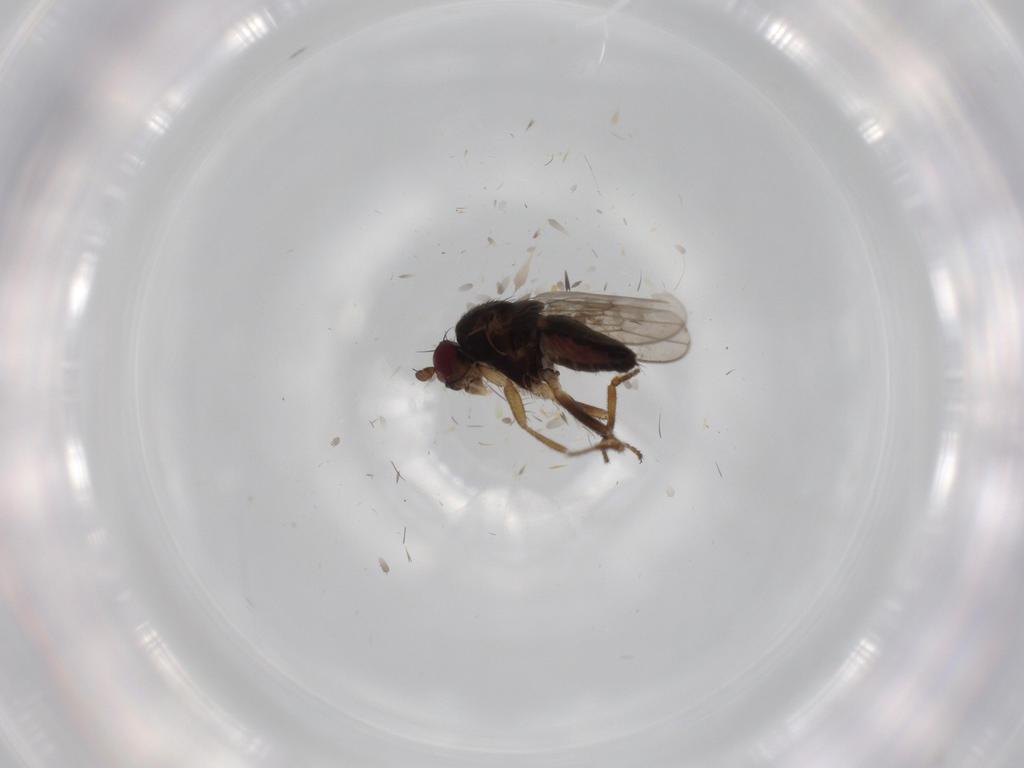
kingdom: Animalia
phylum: Arthropoda
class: Insecta
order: Diptera
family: Sphaeroceridae
